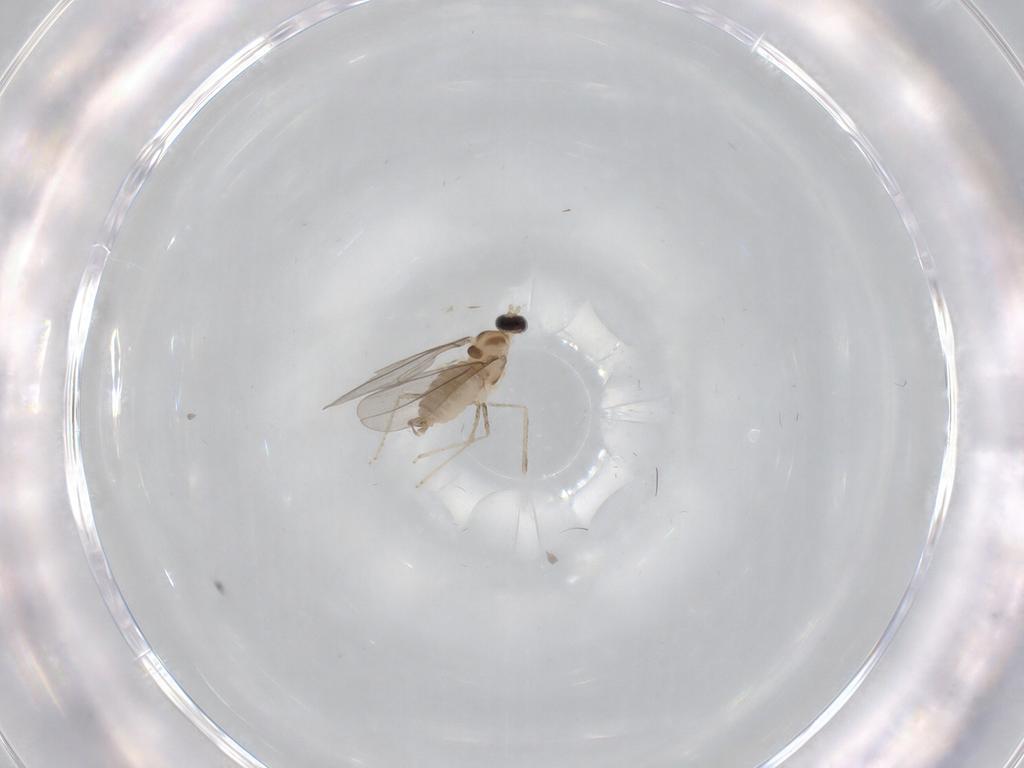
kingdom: Animalia
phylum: Arthropoda
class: Insecta
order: Diptera
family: Cecidomyiidae
